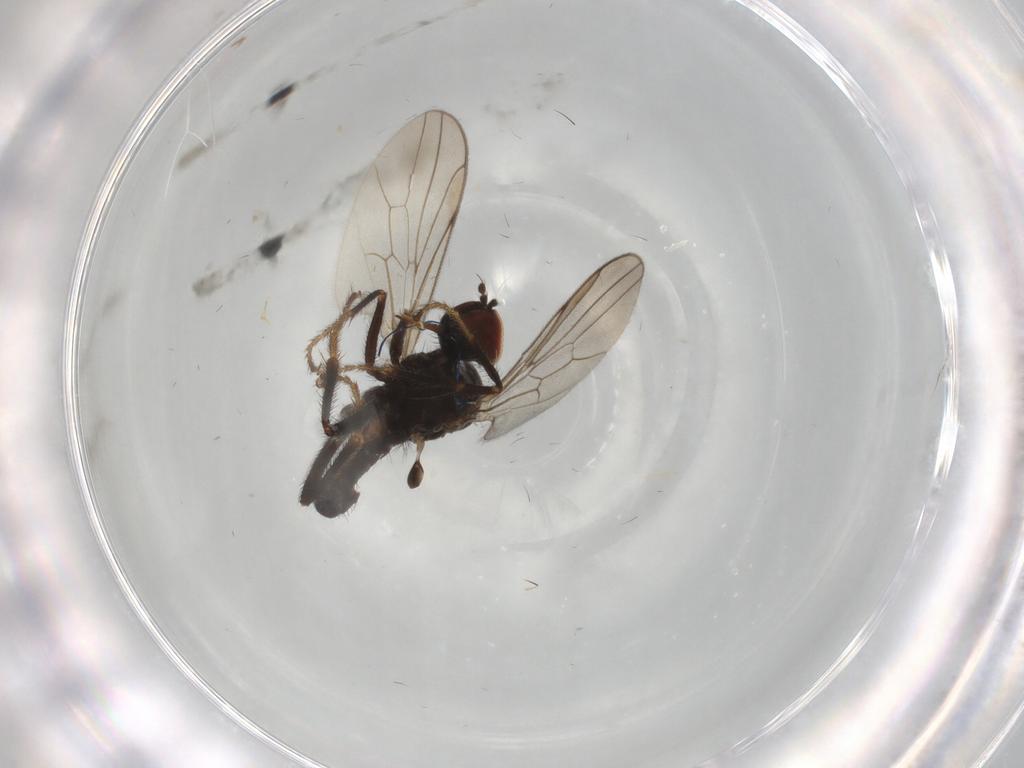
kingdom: Animalia
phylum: Arthropoda
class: Insecta
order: Diptera
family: Hybotidae
